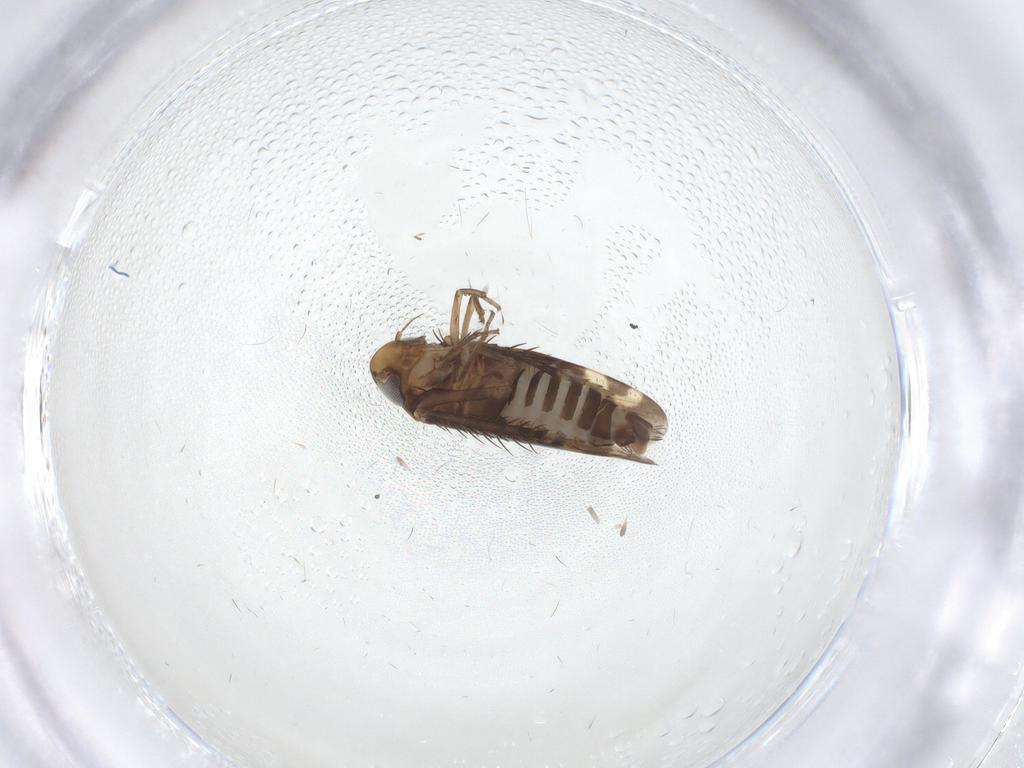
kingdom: Animalia
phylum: Arthropoda
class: Insecta
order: Hemiptera
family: Cicadellidae
